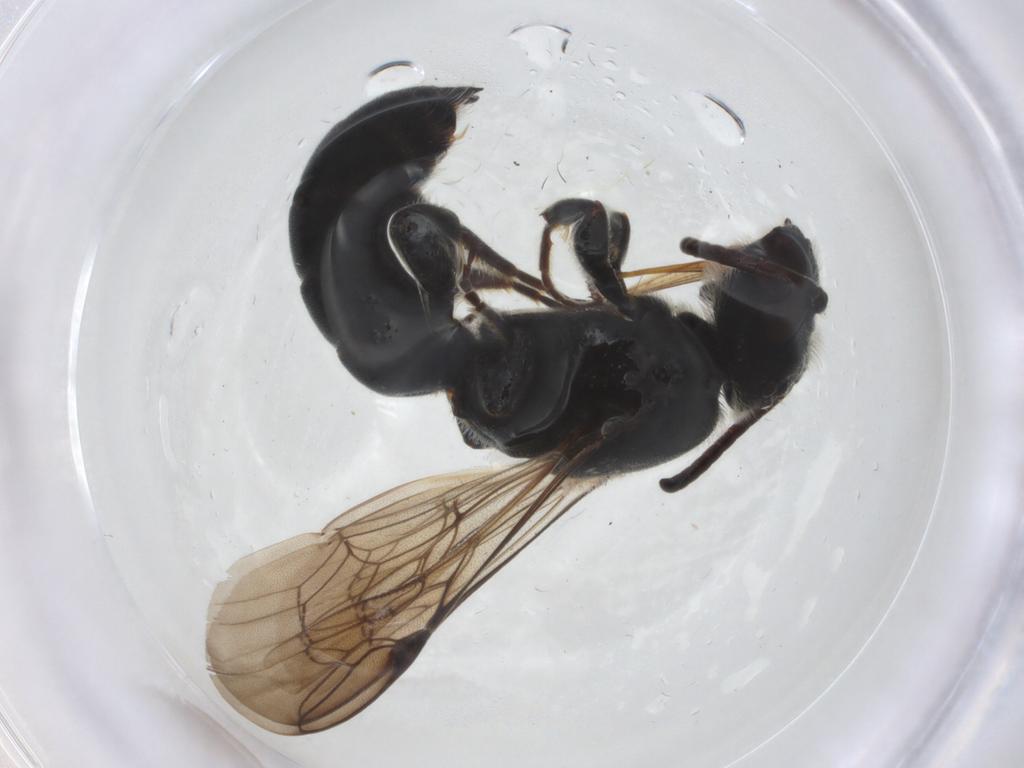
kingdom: Animalia
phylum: Arthropoda
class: Insecta
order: Hymenoptera
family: Megachilidae
